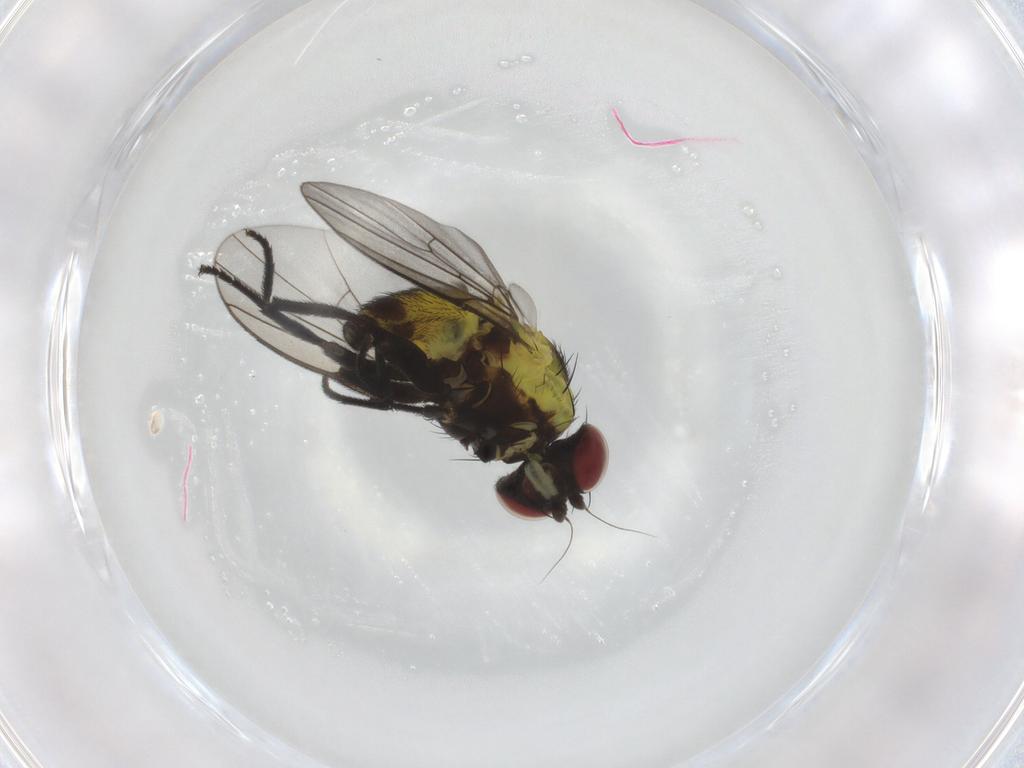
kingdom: Animalia
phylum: Arthropoda
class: Insecta
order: Diptera
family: Agromyzidae
